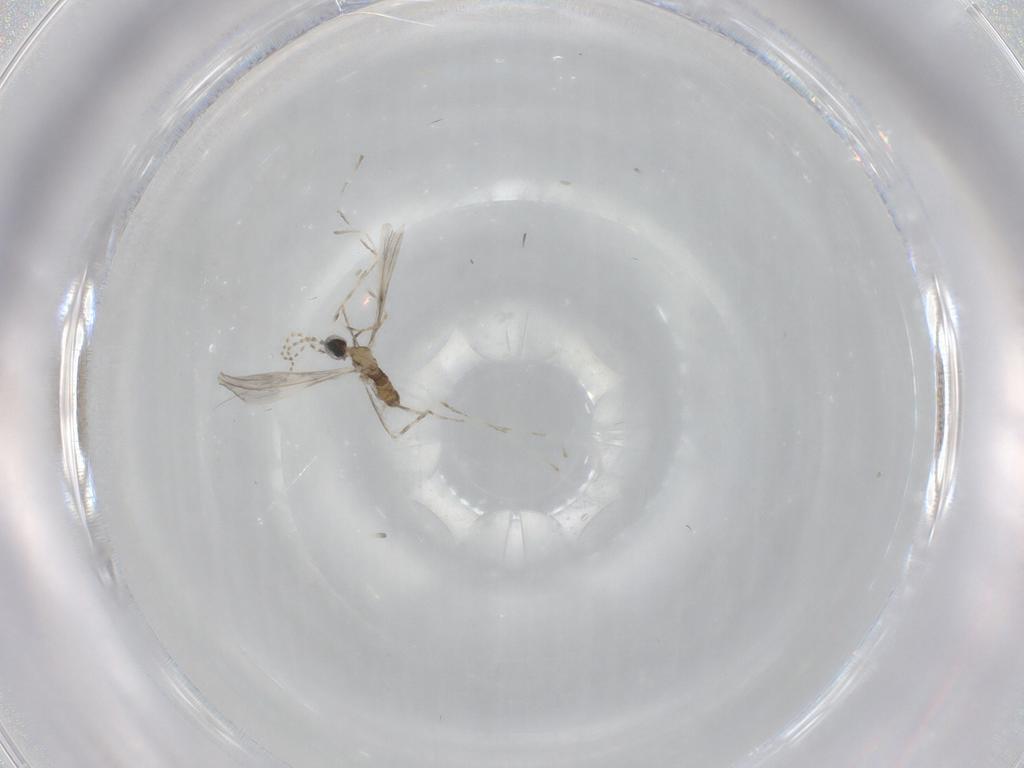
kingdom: Animalia
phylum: Arthropoda
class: Insecta
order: Diptera
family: Cecidomyiidae
